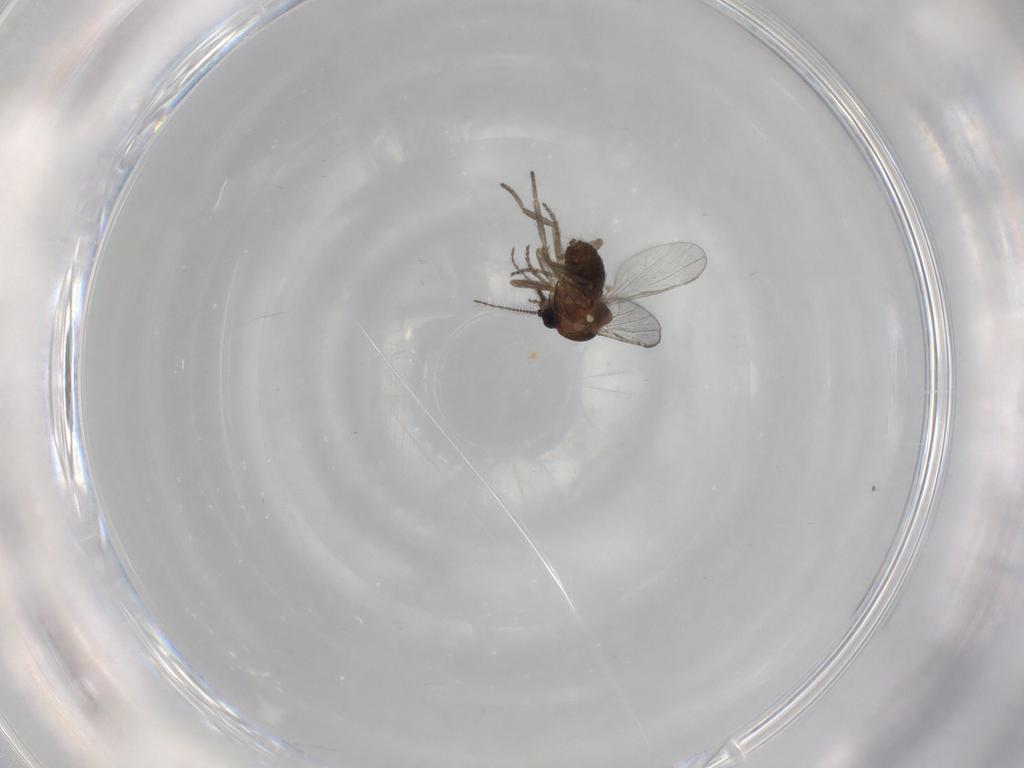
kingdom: Animalia
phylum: Arthropoda
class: Insecta
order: Diptera
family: Ceratopogonidae
